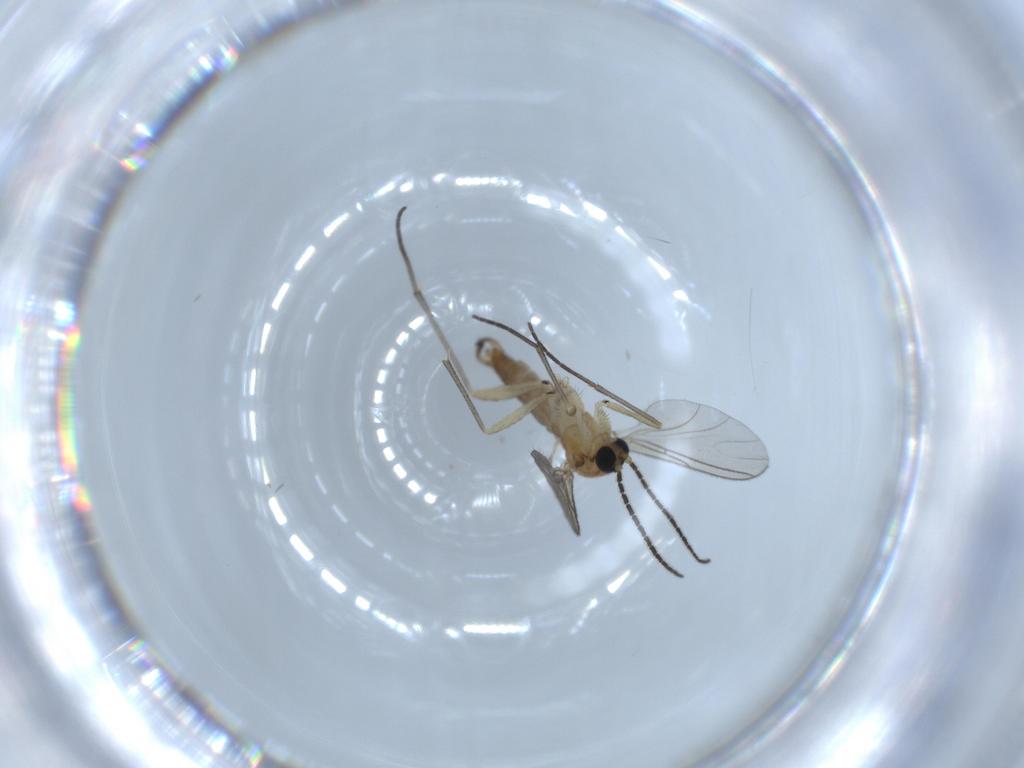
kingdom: Animalia
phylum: Arthropoda
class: Insecta
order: Diptera
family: Sciaridae
